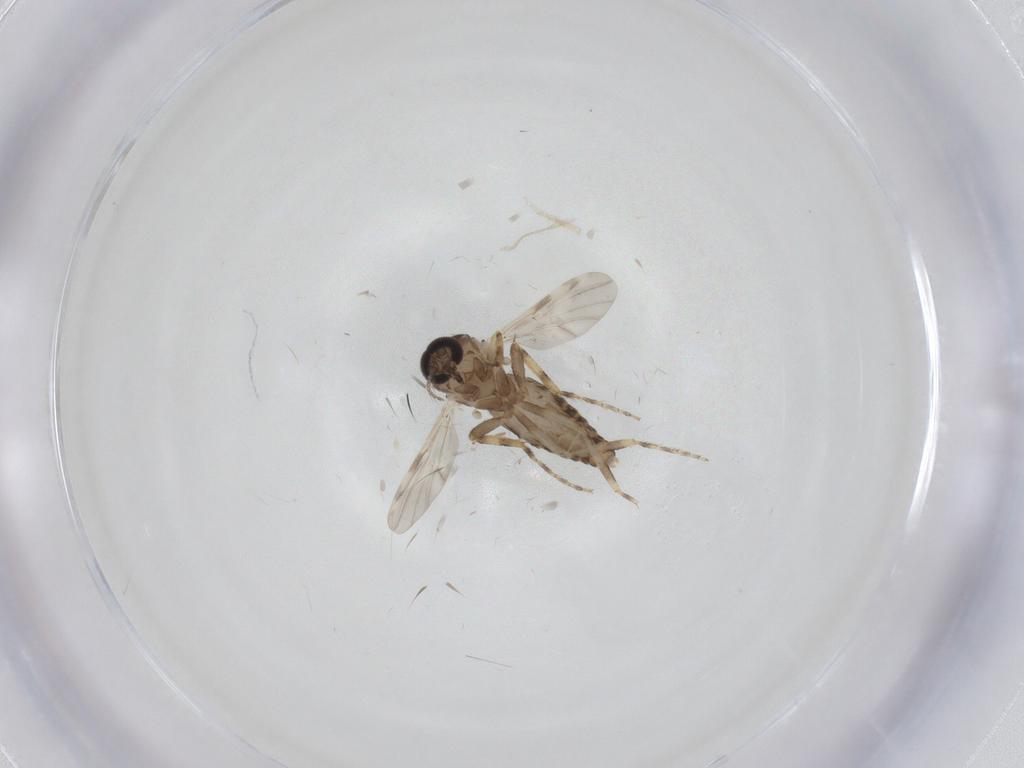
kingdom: Animalia
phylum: Arthropoda
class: Insecta
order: Diptera
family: Ceratopogonidae
